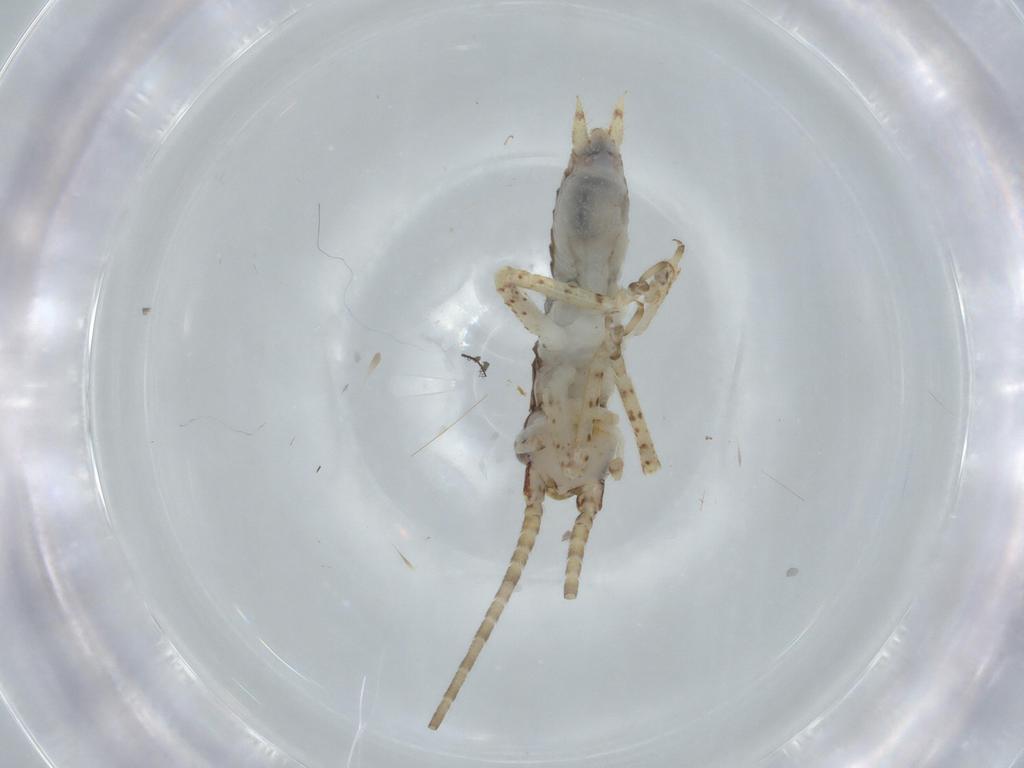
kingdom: Animalia
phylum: Arthropoda
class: Insecta
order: Orthoptera
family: Gryllidae
